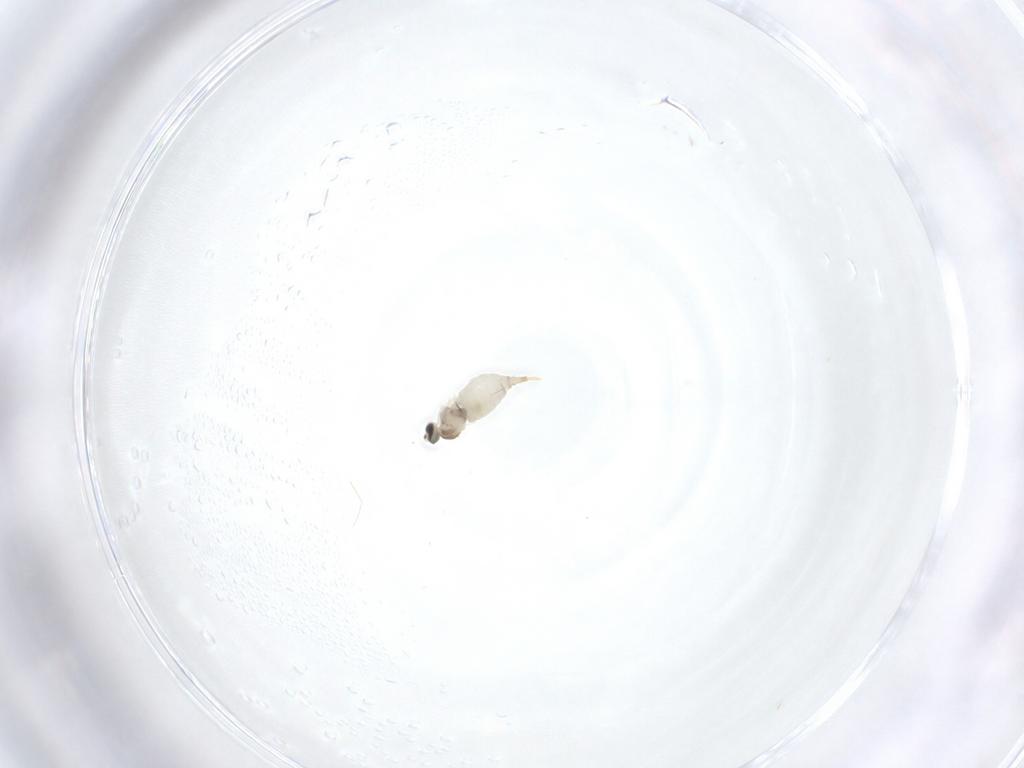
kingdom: Animalia
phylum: Arthropoda
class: Insecta
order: Diptera
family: Cecidomyiidae
